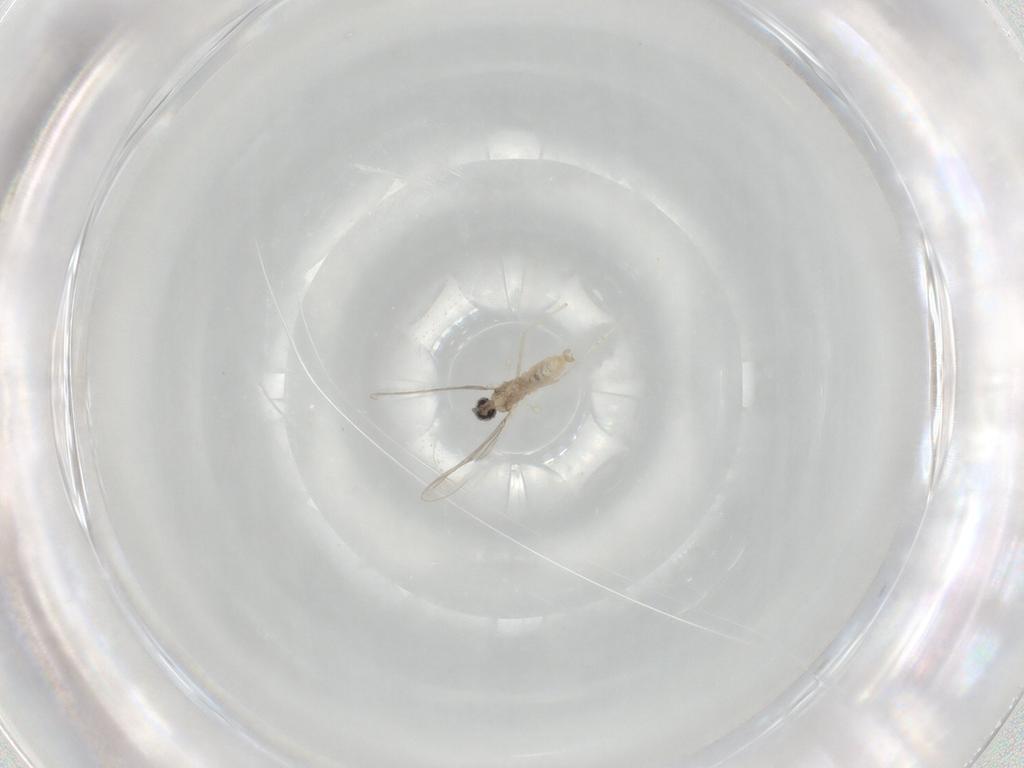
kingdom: Animalia
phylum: Arthropoda
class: Insecta
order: Diptera
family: Cecidomyiidae
